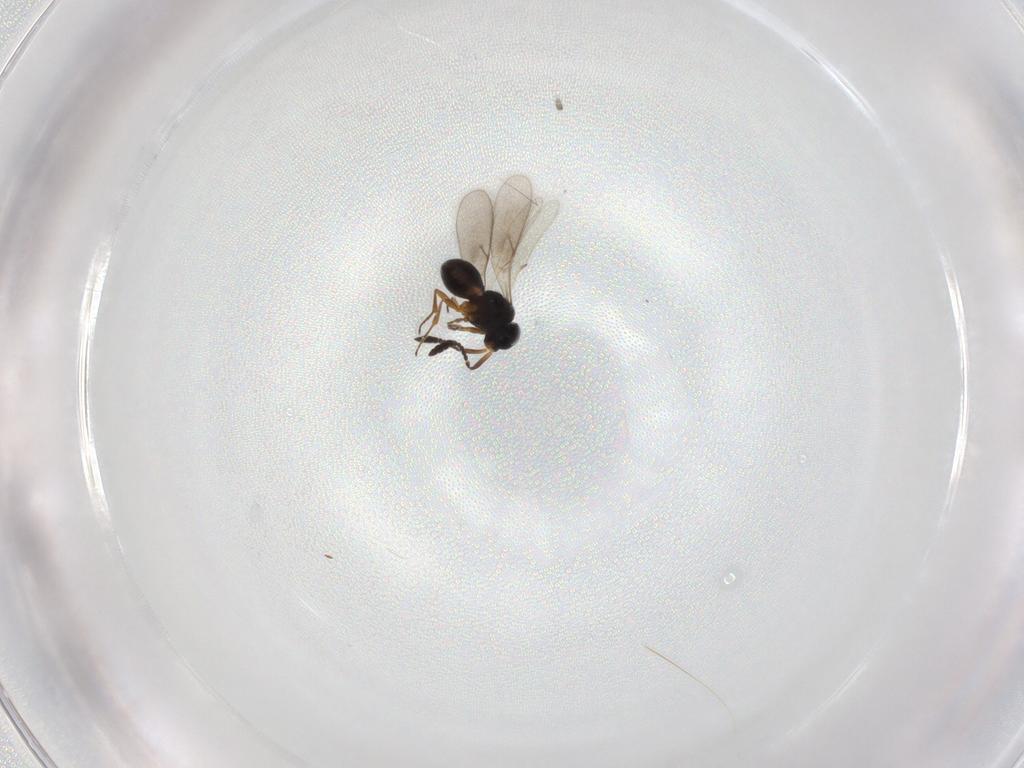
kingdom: Animalia
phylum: Arthropoda
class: Insecta
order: Hymenoptera
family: Scelionidae
